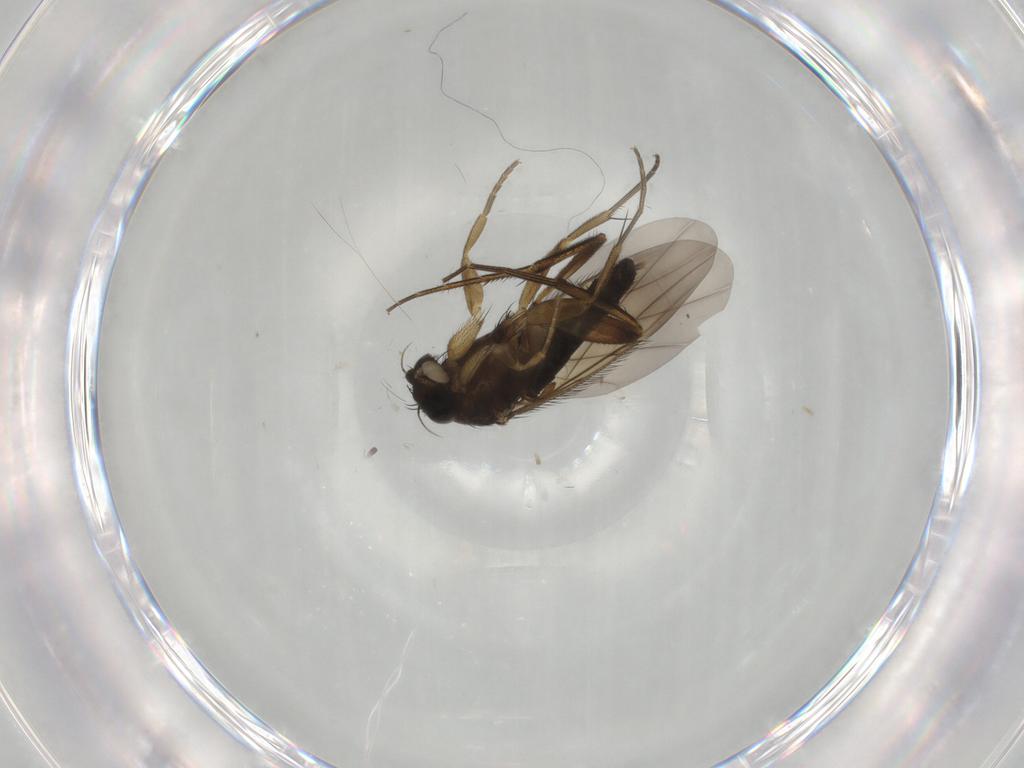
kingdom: Animalia
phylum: Arthropoda
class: Insecta
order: Diptera
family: Phoridae
